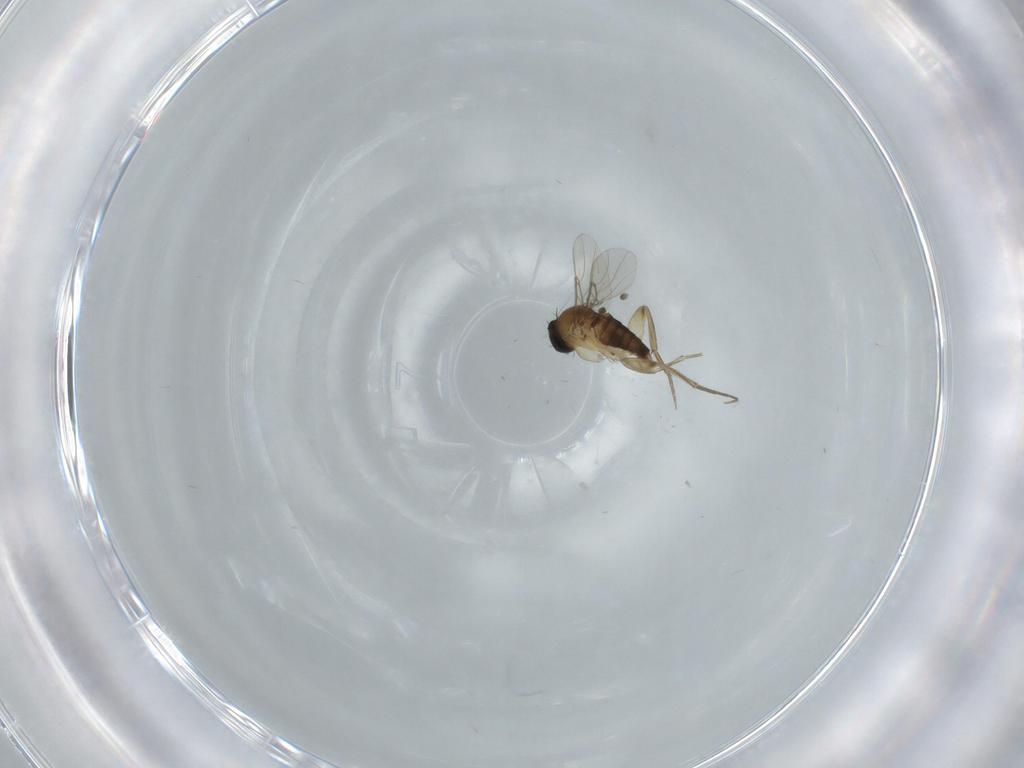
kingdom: Animalia
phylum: Arthropoda
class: Insecta
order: Diptera
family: Phoridae
